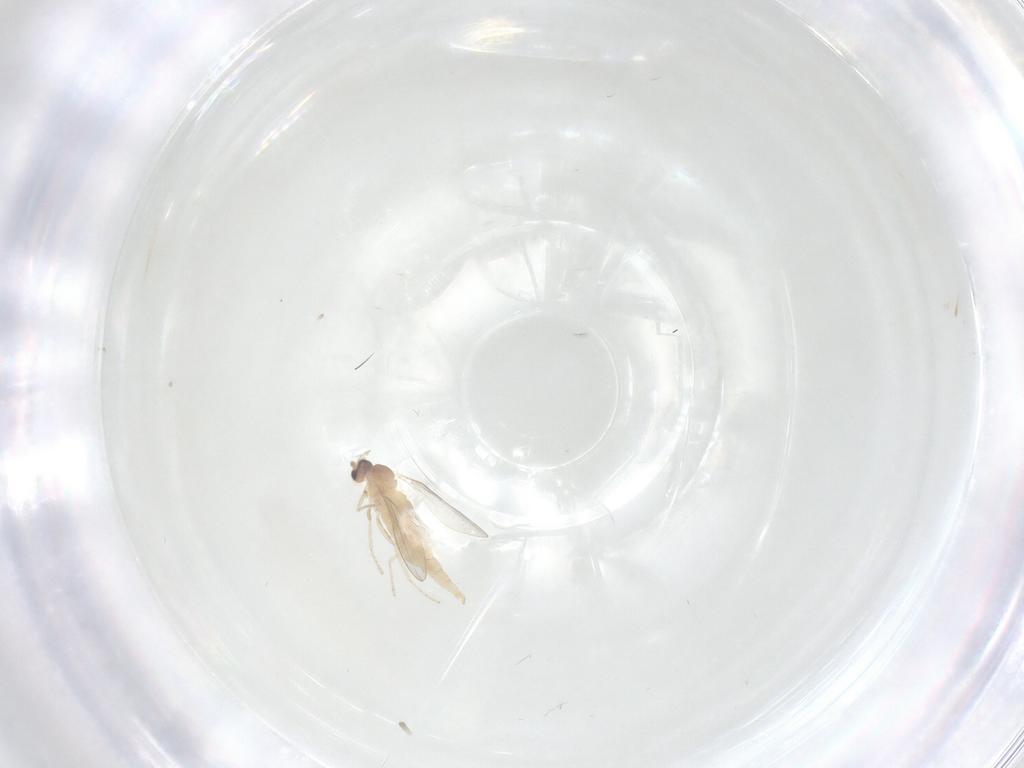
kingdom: Animalia
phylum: Arthropoda
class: Insecta
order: Diptera
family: Cecidomyiidae
